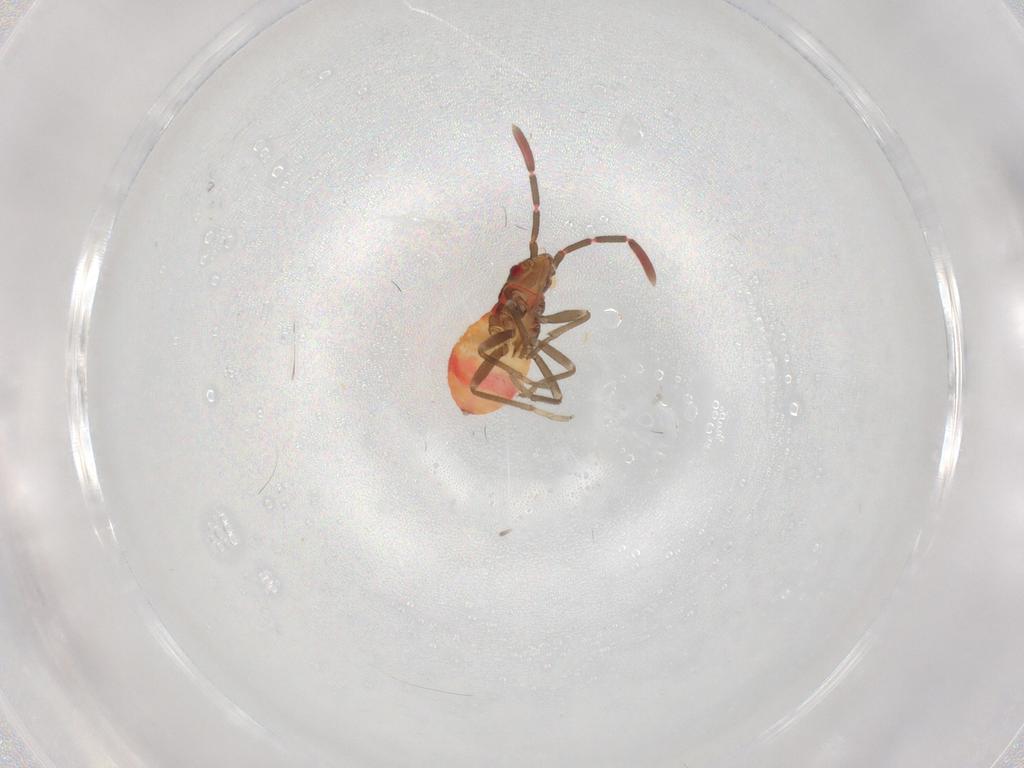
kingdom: Animalia
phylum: Arthropoda
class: Insecta
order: Hemiptera
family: Rhyparochromidae
